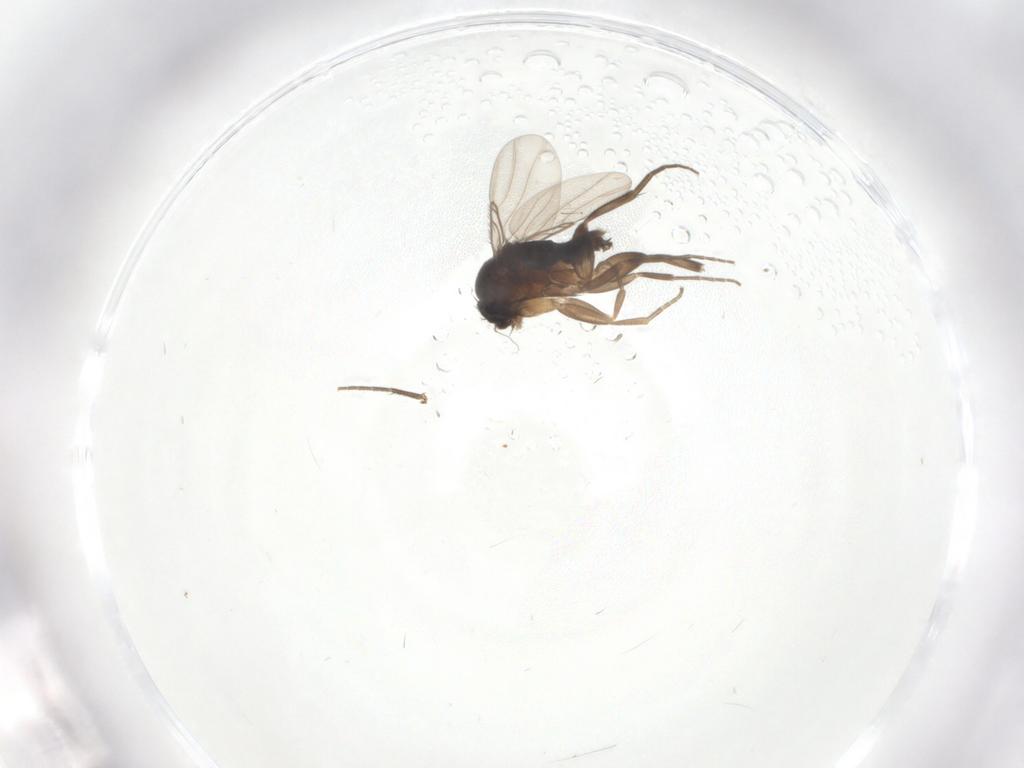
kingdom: Animalia
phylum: Arthropoda
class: Insecta
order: Diptera
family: Phoridae
